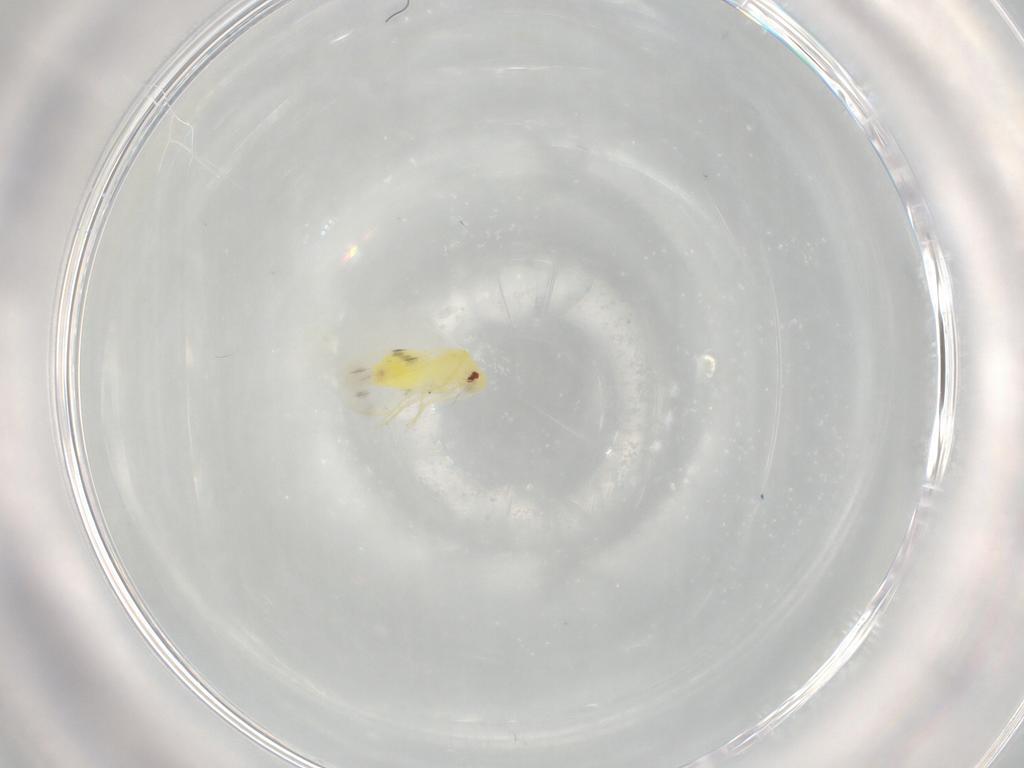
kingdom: Animalia
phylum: Arthropoda
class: Insecta
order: Hemiptera
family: Aleyrodidae
